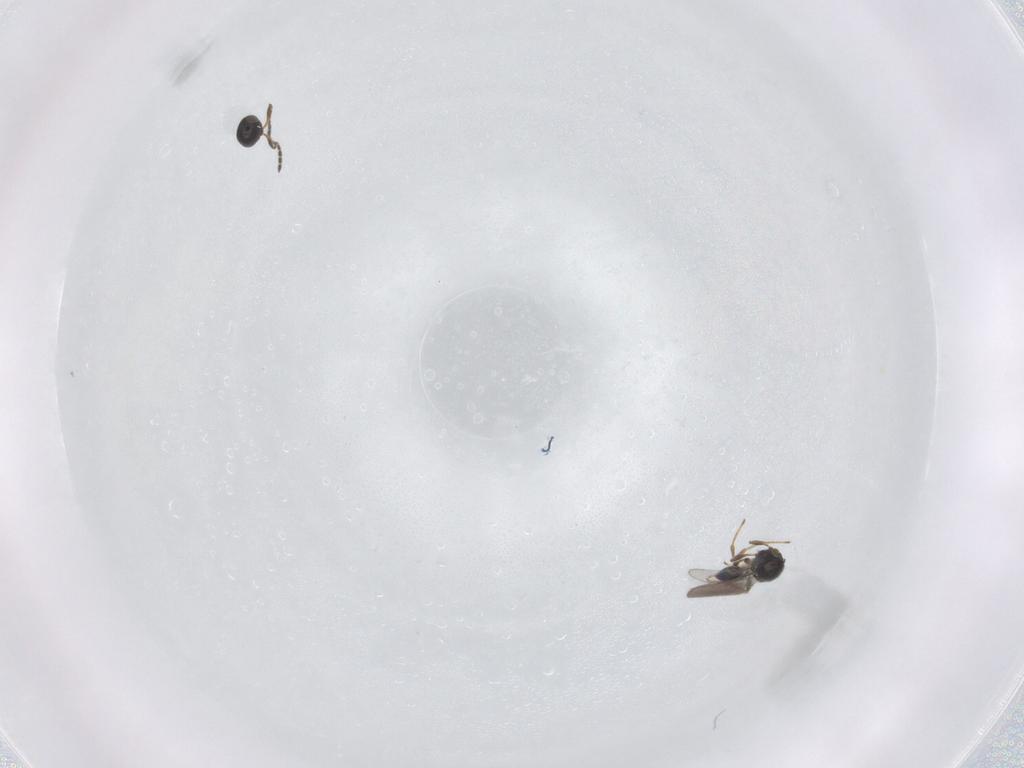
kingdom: Animalia
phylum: Arthropoda
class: Insecta
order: Hymenoptera
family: Platygastridae
